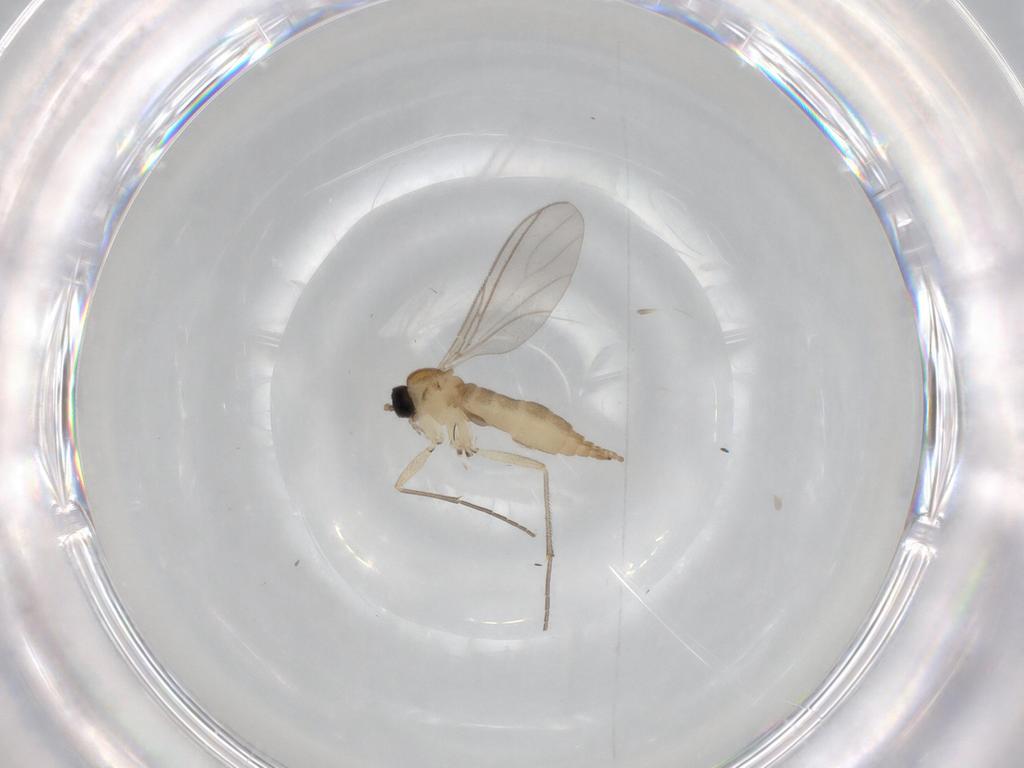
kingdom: Animalia
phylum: Arthropoda
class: Insecta
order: Diptera
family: Sciaridae
